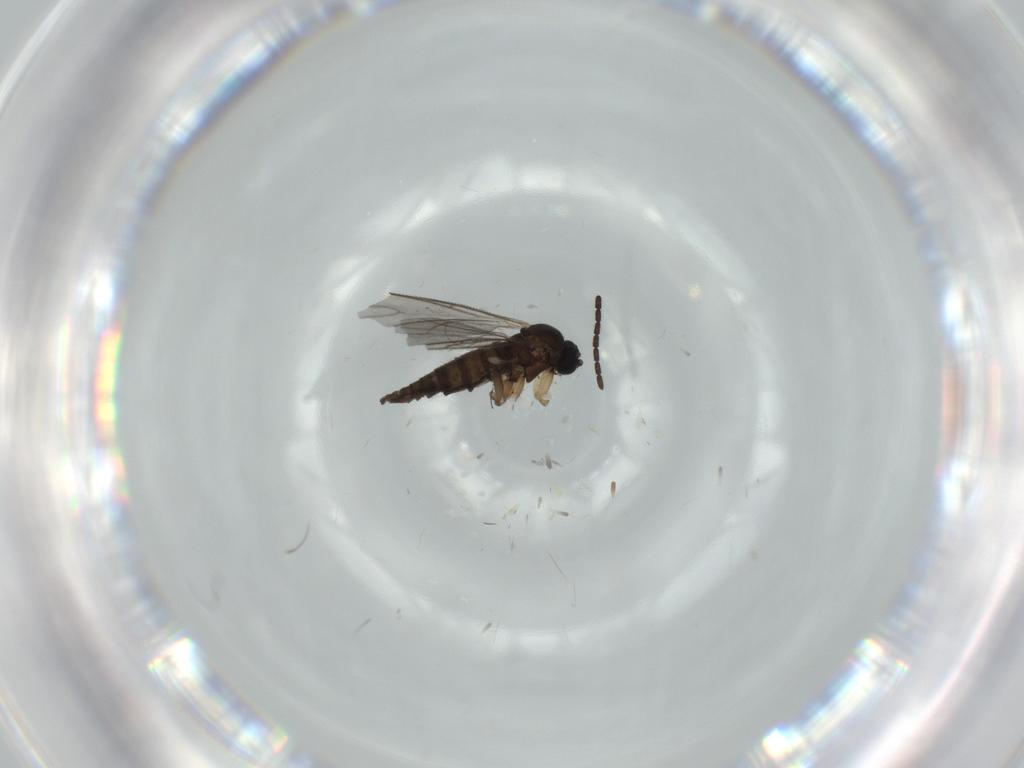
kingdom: Animalia
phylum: Arthropoda
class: Insecta
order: Diptera
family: Sciaridae
